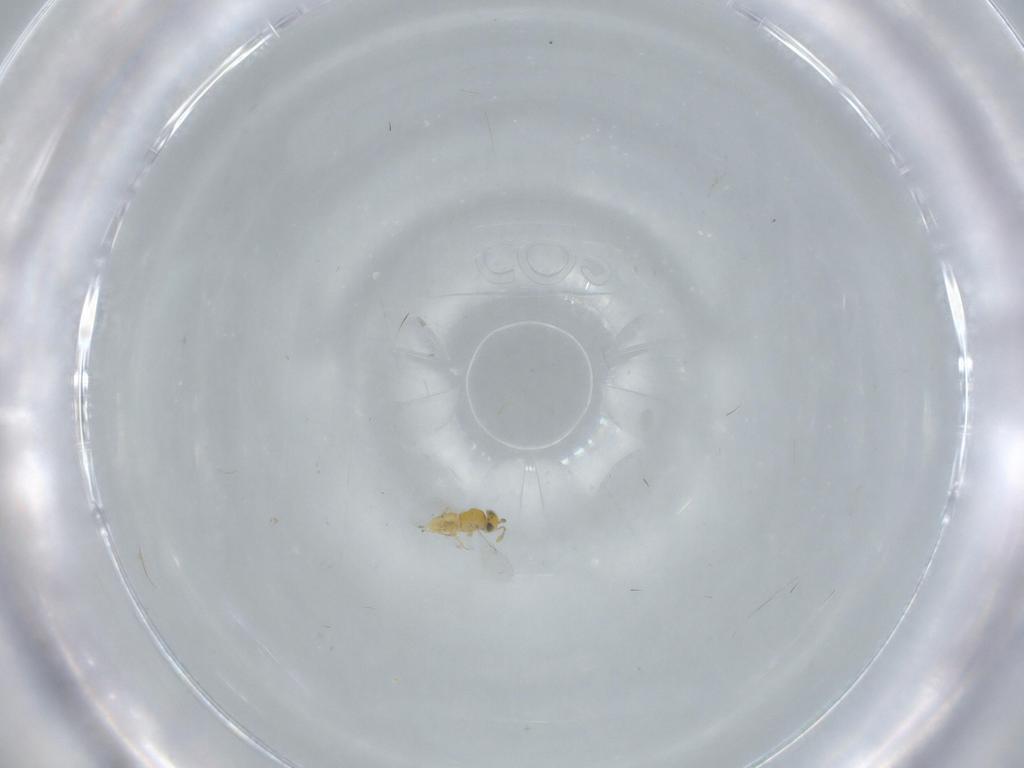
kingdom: Animalia
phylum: Arthropoda
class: Insecta
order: Hymenoptera
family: Encyrtidae
